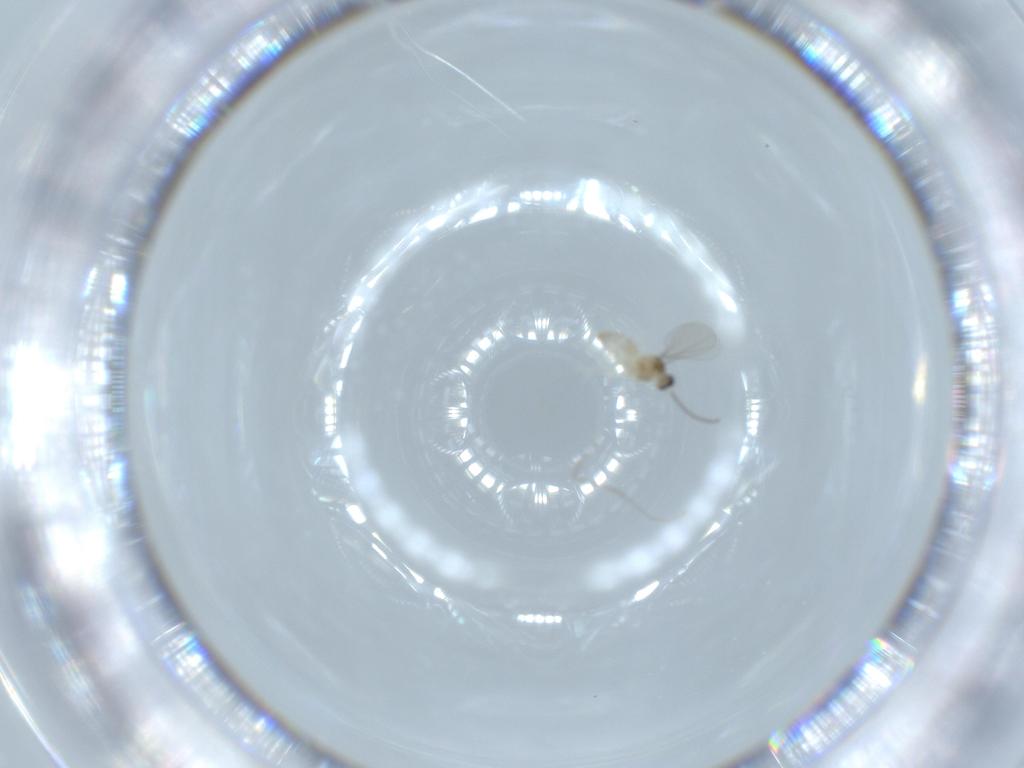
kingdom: Animalia
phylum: Arthropoda
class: Insecta
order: Diptera
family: Cecidomyiidae
